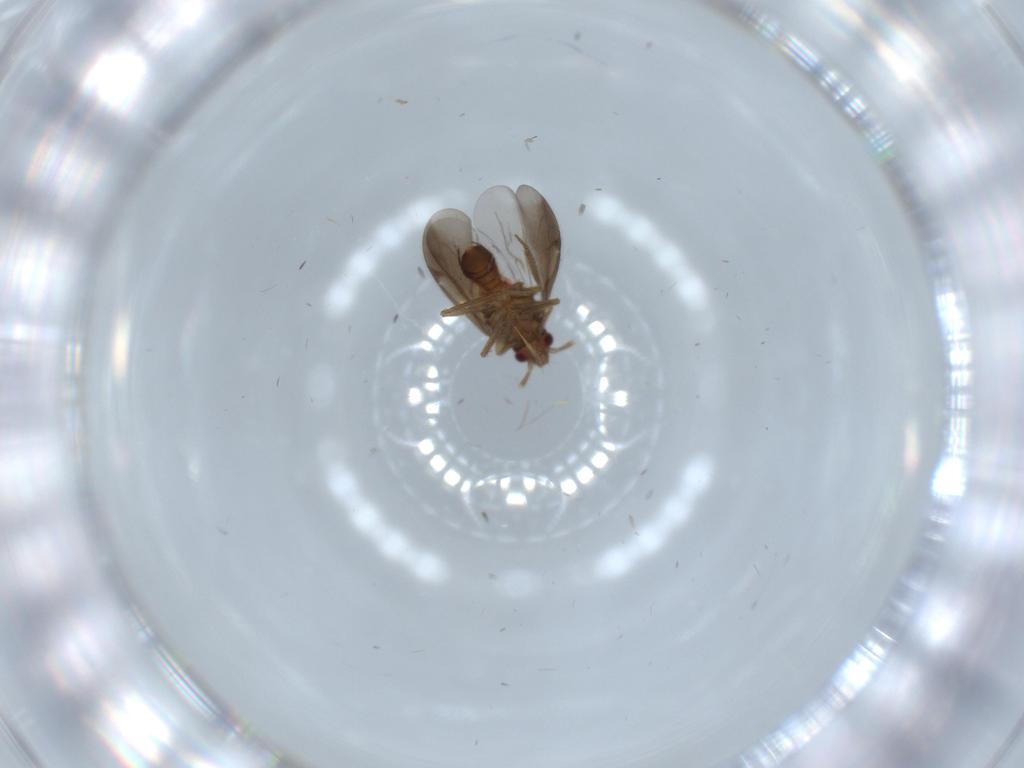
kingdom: Animalia
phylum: Arthropoda
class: Insecta
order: Hemiptera
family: Ceratocombidae
